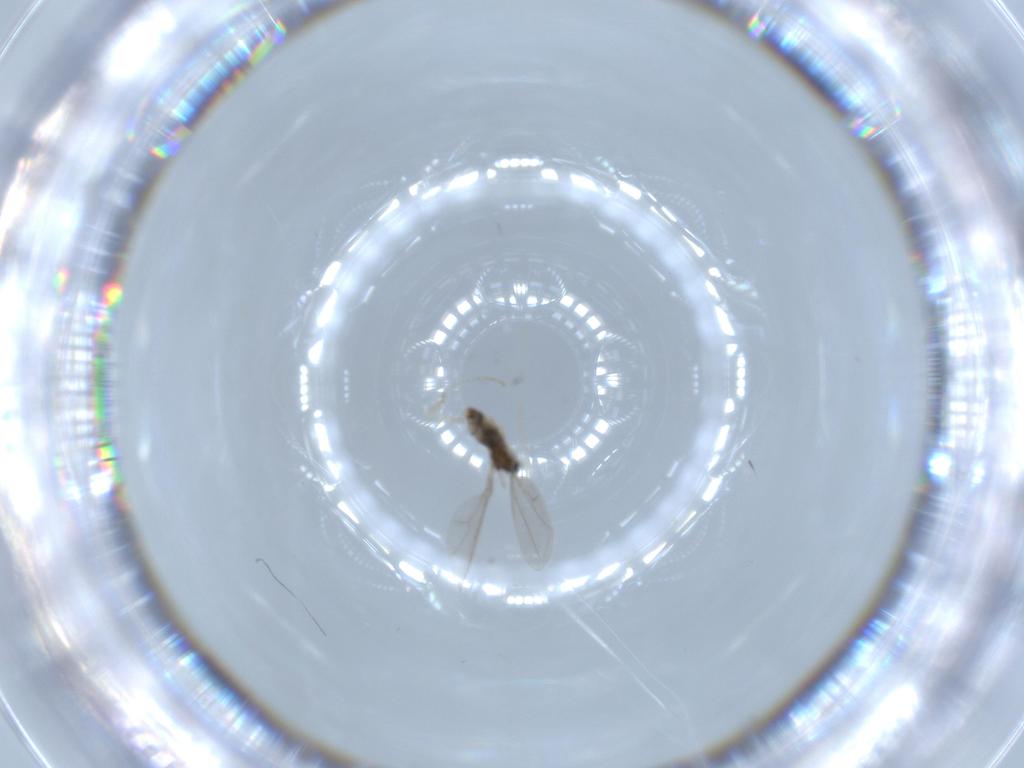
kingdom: Animalia
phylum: Arthropoda
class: Insecta
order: Diptera
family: Cecidomyiidae
